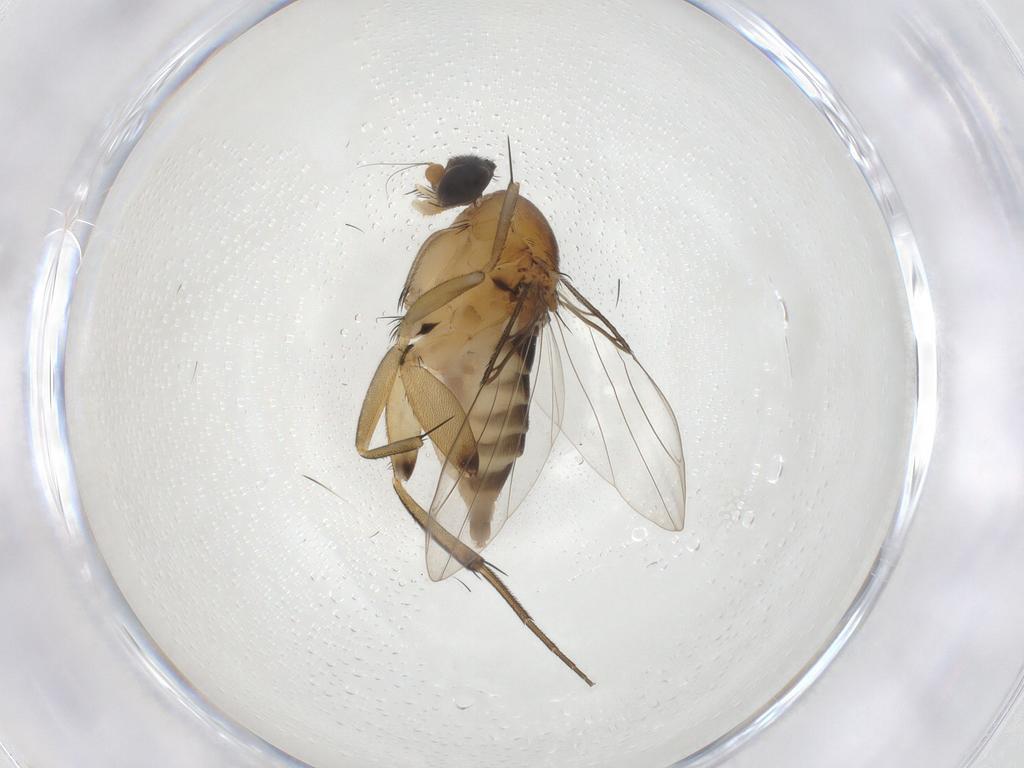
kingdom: Animalia
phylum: Arthropoda
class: Insecta
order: Diptera
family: Phoridae
